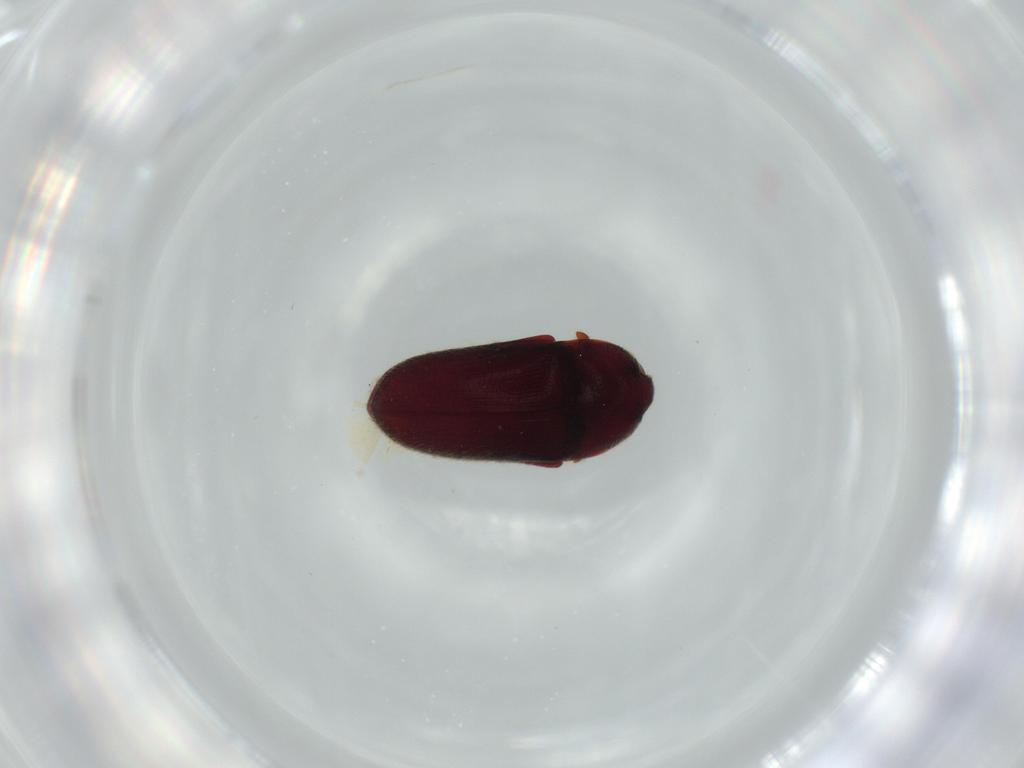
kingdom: Animalia
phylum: Arthropoda
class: Insecta
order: Coleoptera
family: Throscidae
